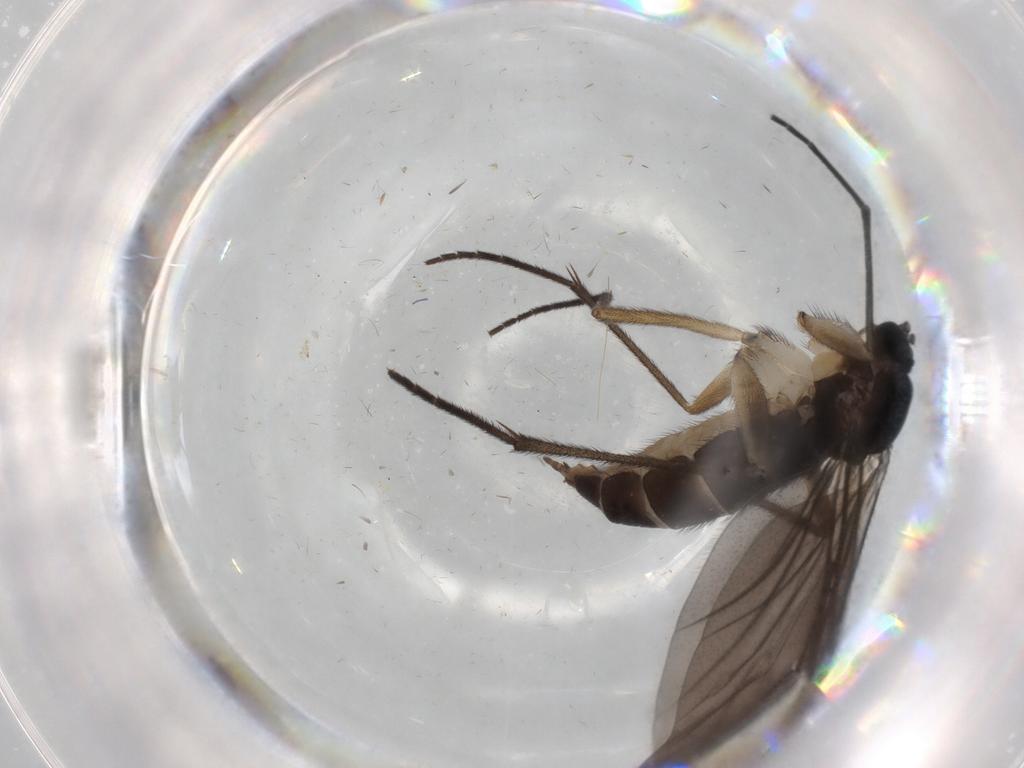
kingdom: Animalia
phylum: Arthropoda
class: Insecta
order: Diptera
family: Sciaridae
